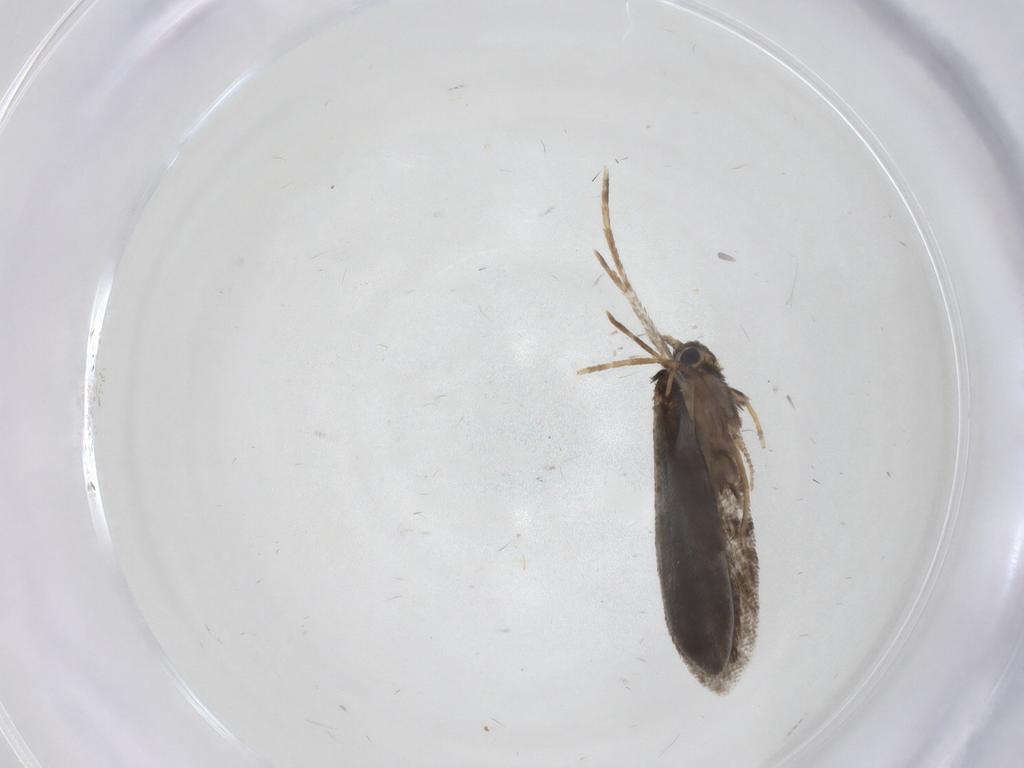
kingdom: Animalia
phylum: Arthropoda
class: Insecta
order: Lepidoptera
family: Psychidae
